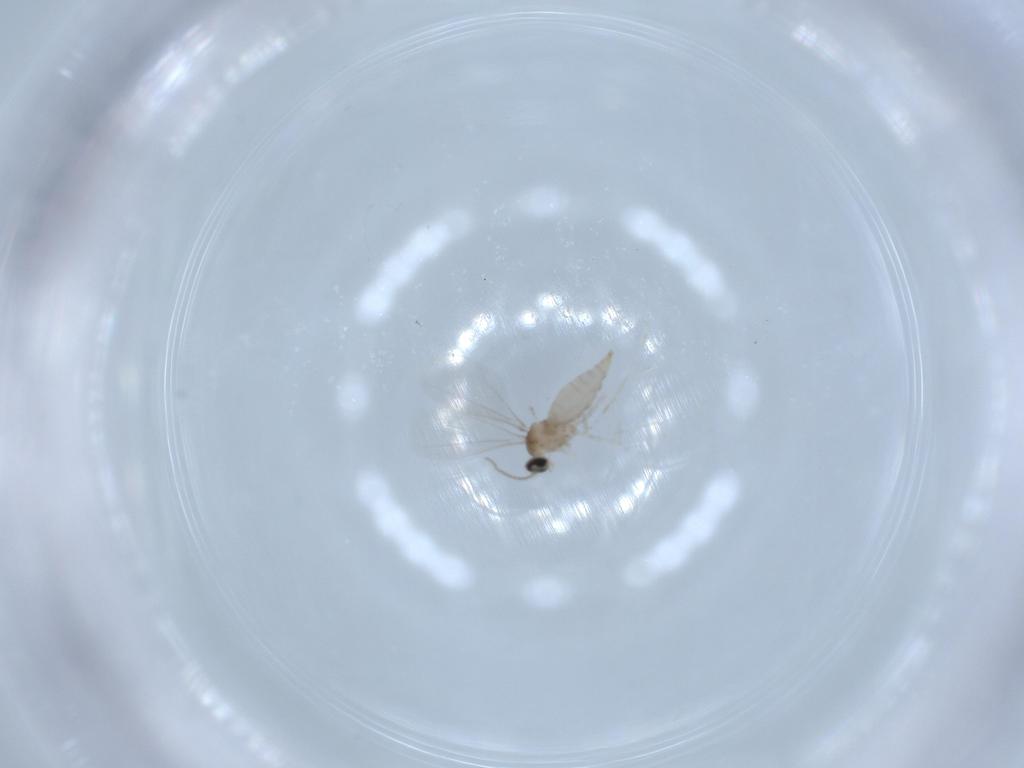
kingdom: Animalia
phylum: Arthropoda
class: Insecta
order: Diptera
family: Cecidomyiidae
